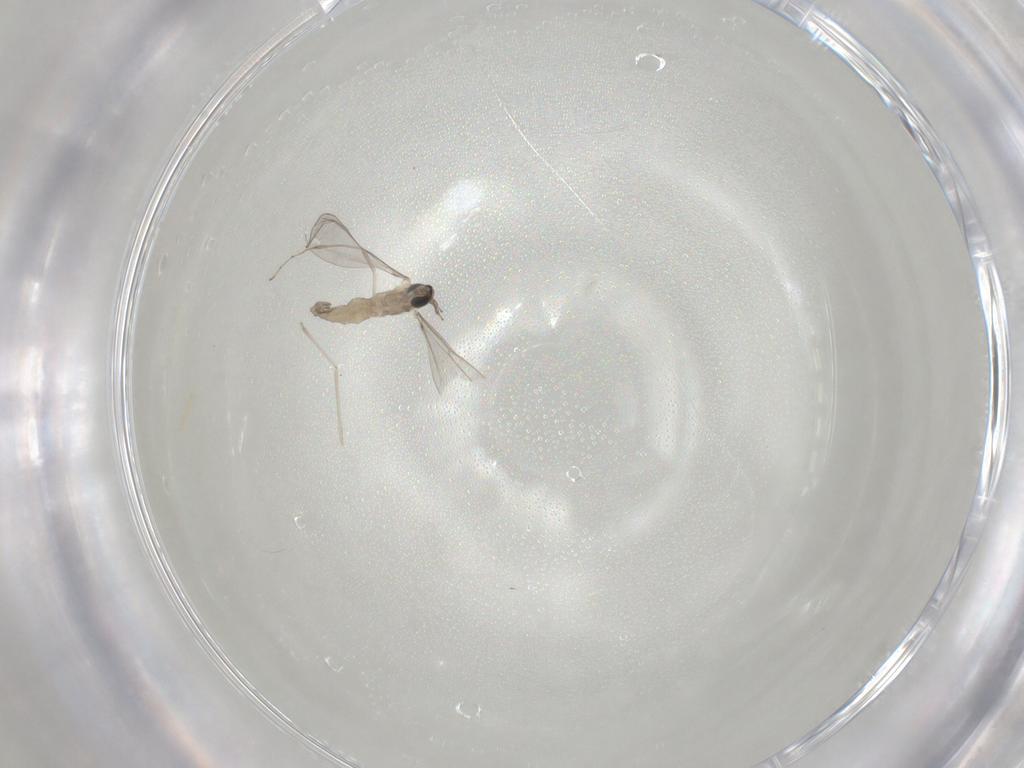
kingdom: Animalia
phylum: Arthropoda
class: Insecta
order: Diptera
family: Cecidomyiidae
